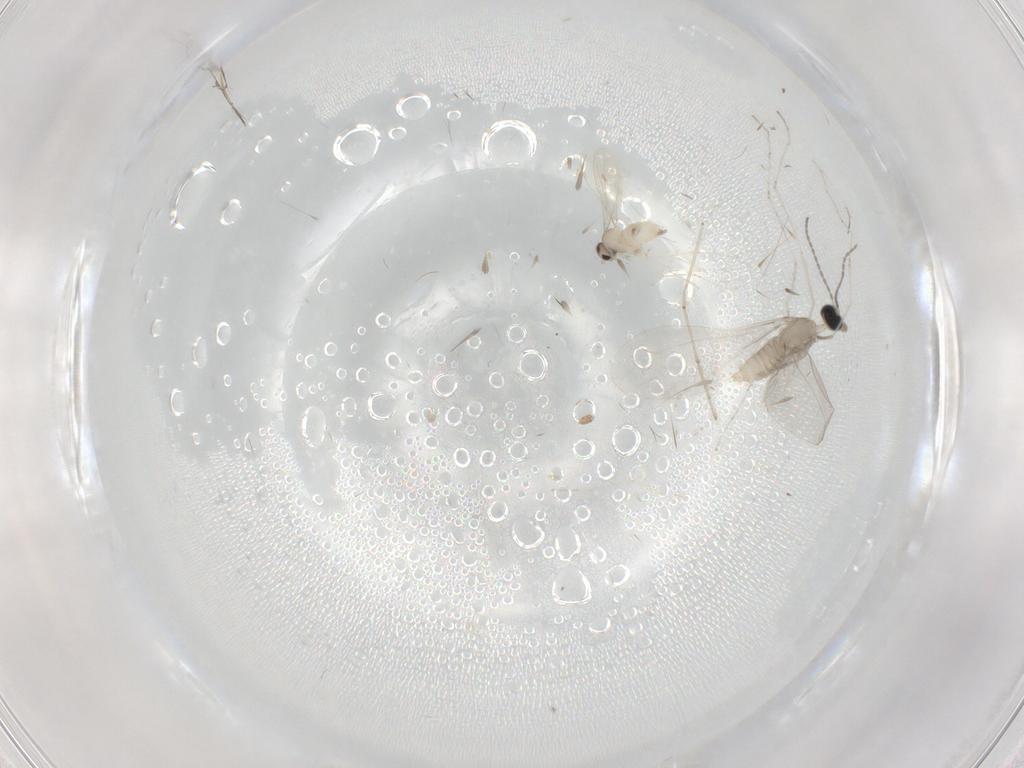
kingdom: Animalia
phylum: Arthropoda
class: Insecta
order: Diptera
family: Cecidomyiidae
